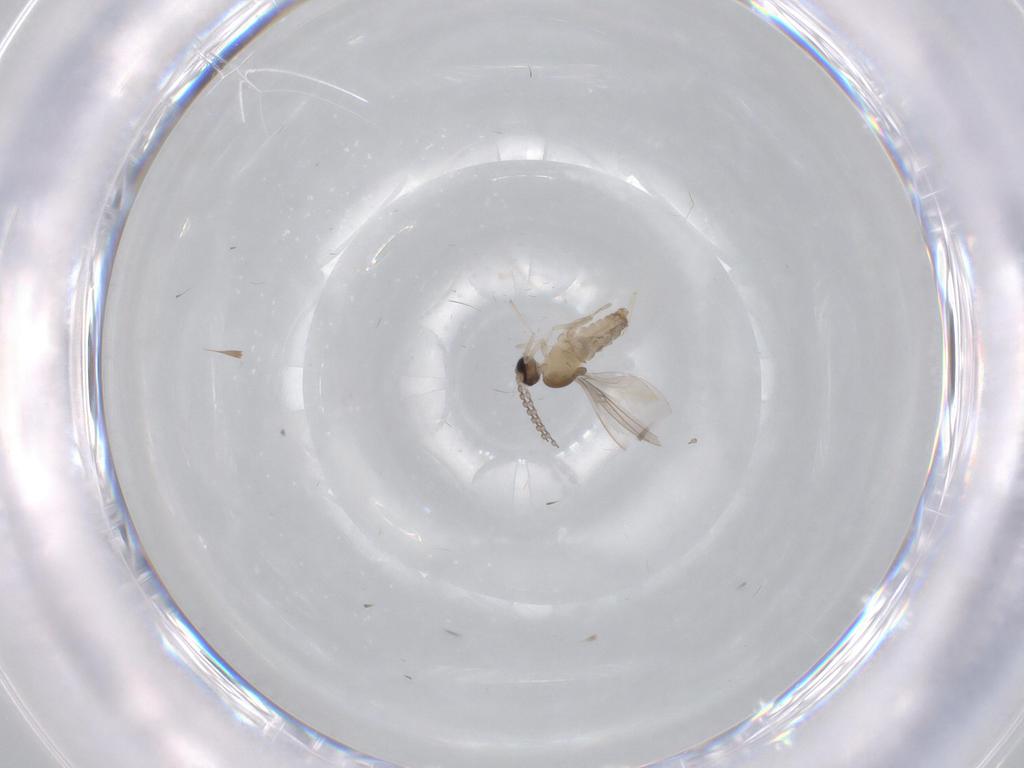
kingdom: Animalia
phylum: Arthropoda
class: Insecta
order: Diptera
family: Cecidomyiidae
